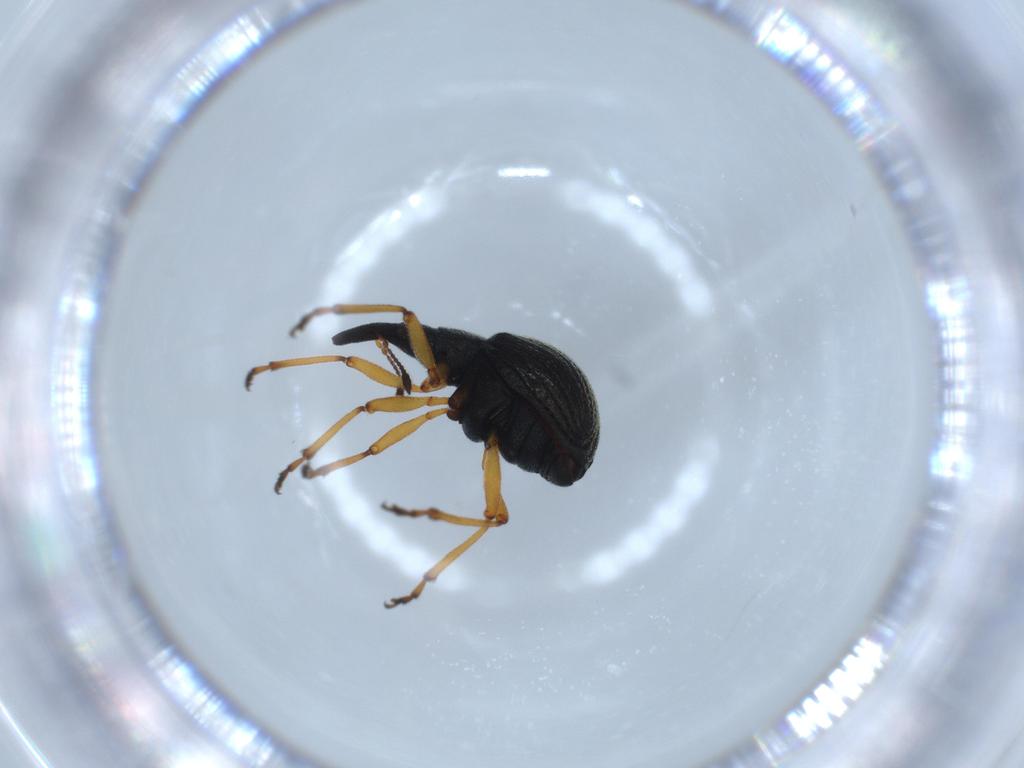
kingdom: Animalia
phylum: Arthropoda
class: Insecta
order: Coleoptera
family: Brentidae
